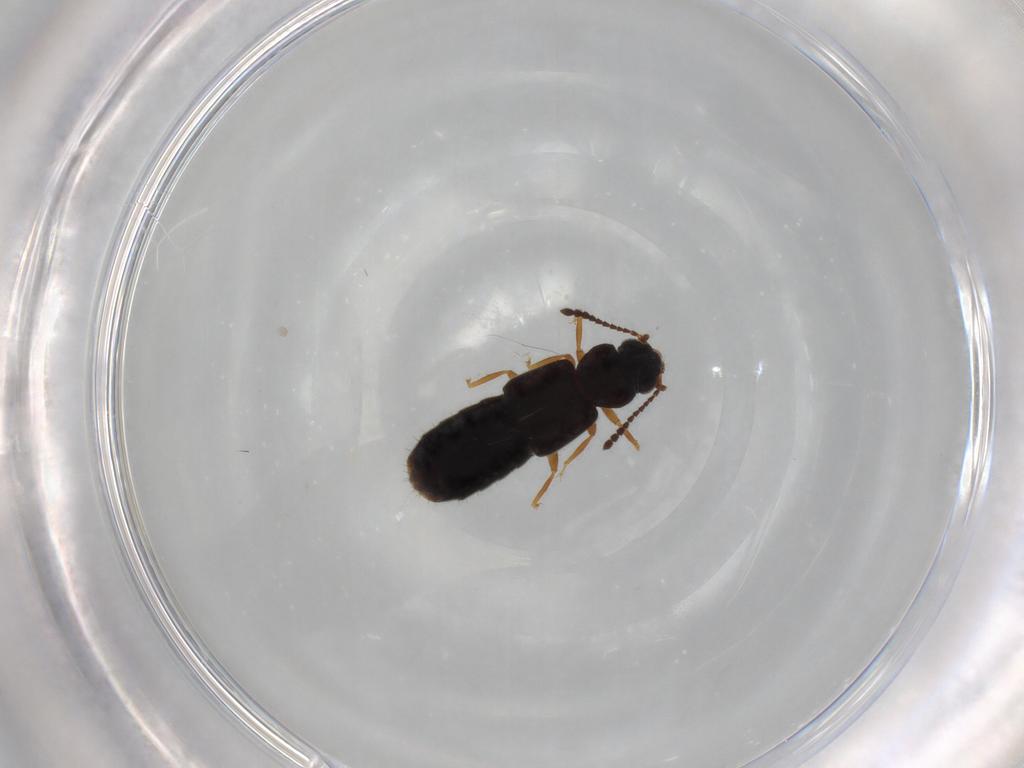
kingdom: Animalia
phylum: Arthropoda
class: Insecta
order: Coleoptera
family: Staphylinidae
